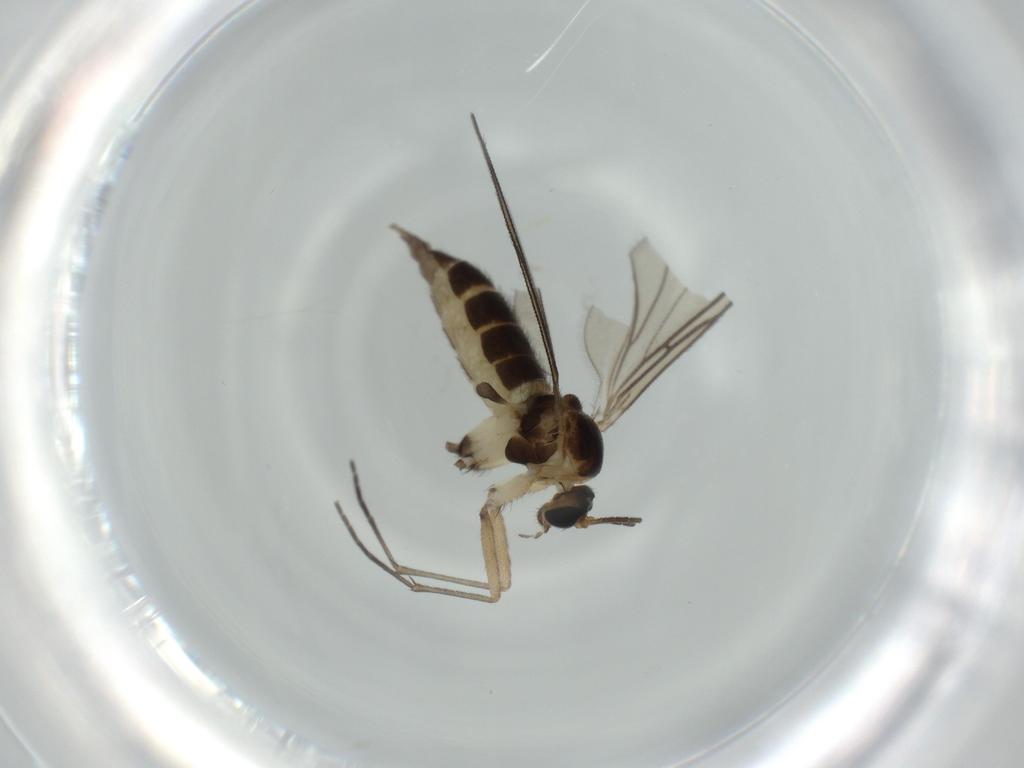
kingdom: Animalia
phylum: Arthropoda
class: Insecta
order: Diptera
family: Sciaridae
